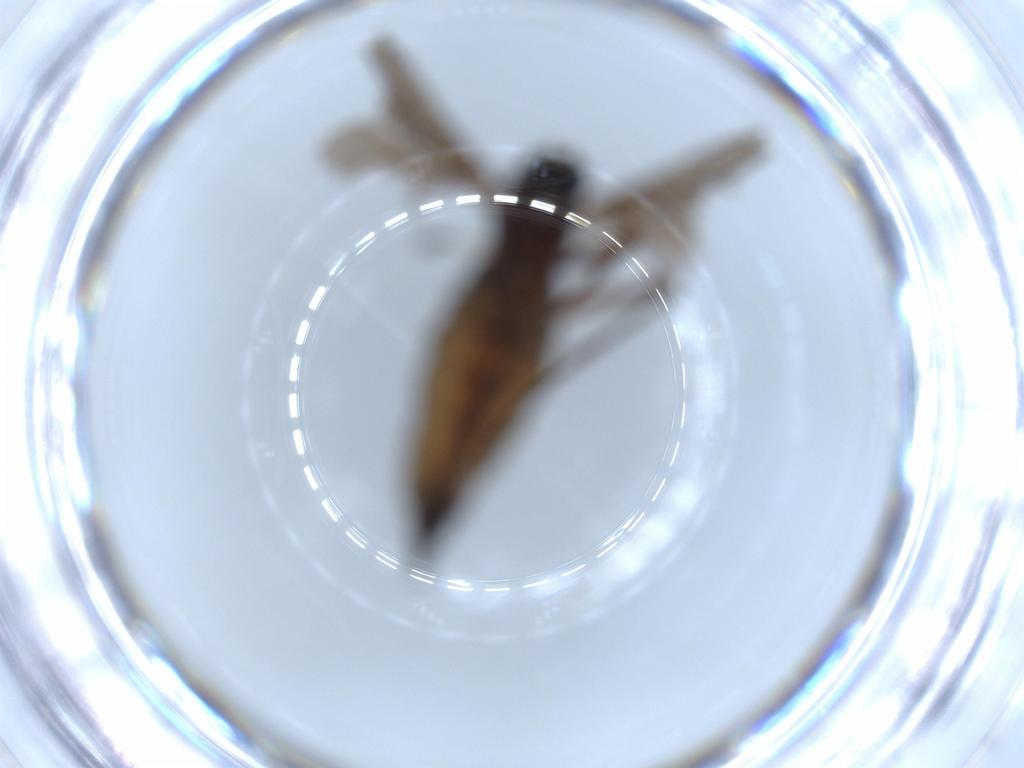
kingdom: Animalia
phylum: Arthropoda
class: Insecta
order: Diptera
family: Sciaridae
